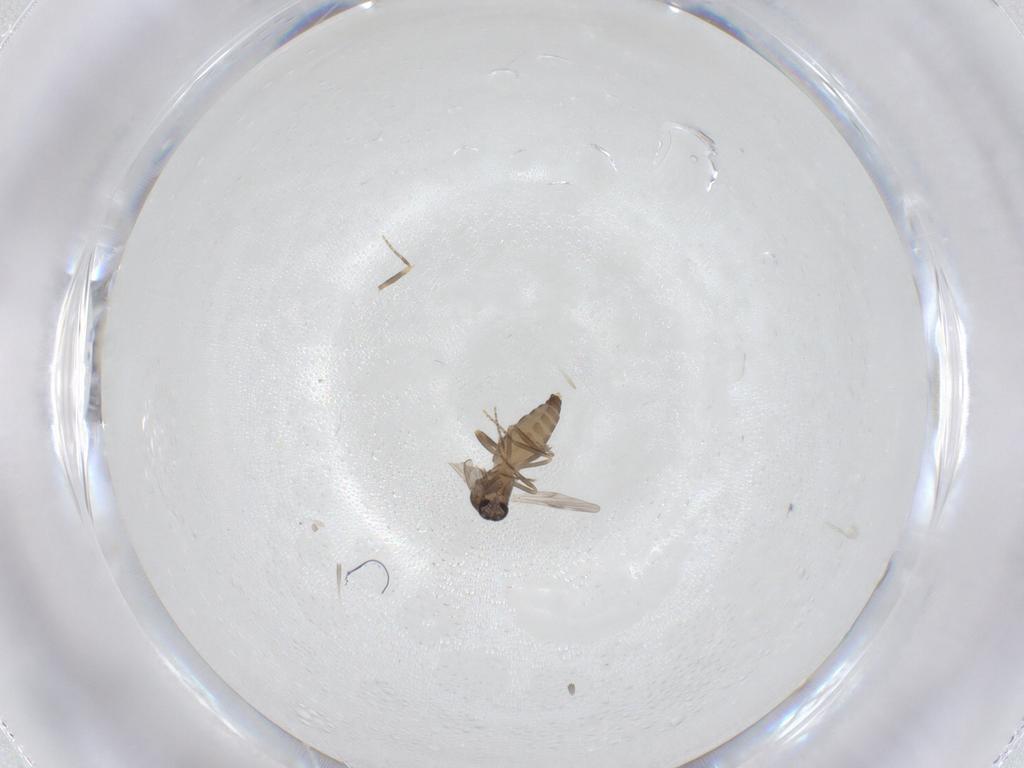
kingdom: Animalia
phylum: Arthropoda
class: Insecta
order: Diptera
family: Ceratopogonidae
